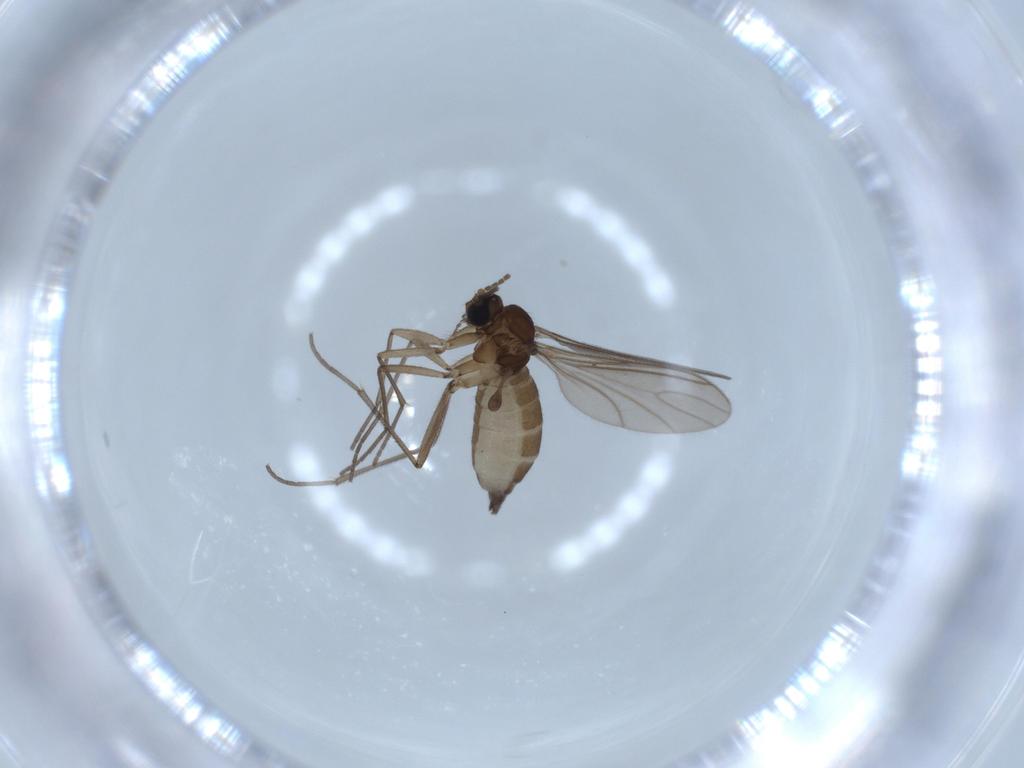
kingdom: Animalia
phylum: Arthropoda
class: Insecta
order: Diptera
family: Sciaridae
